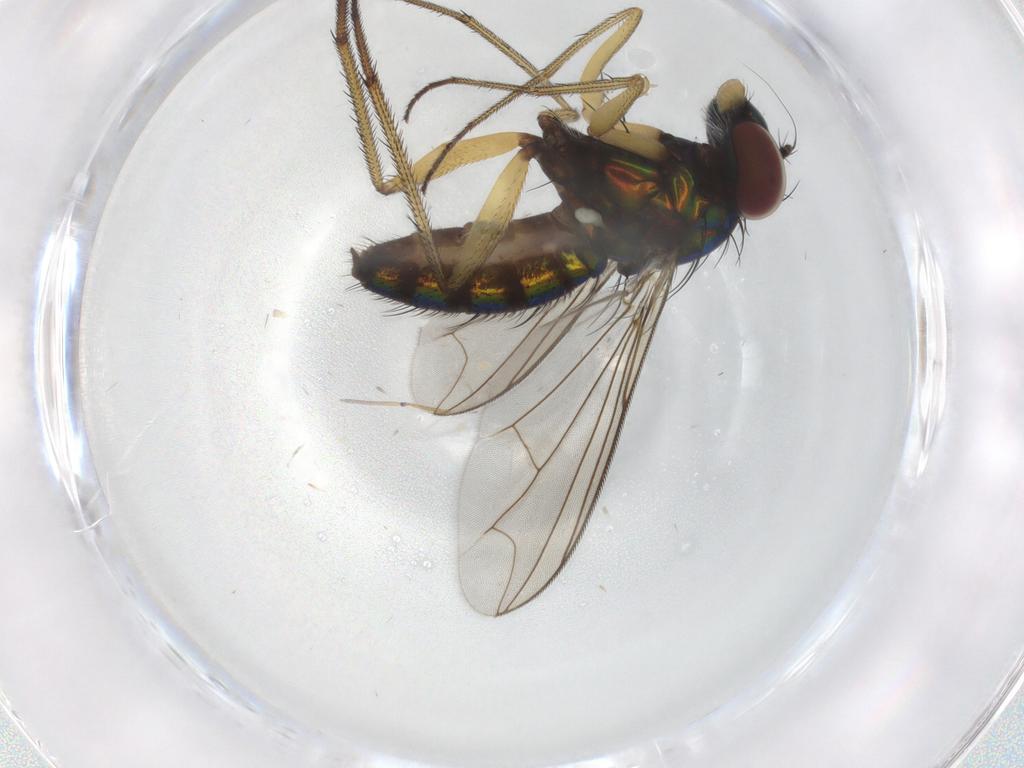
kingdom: Animalia
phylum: Arthropoda
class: Insecta
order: Diptera
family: Dolichopodidae
